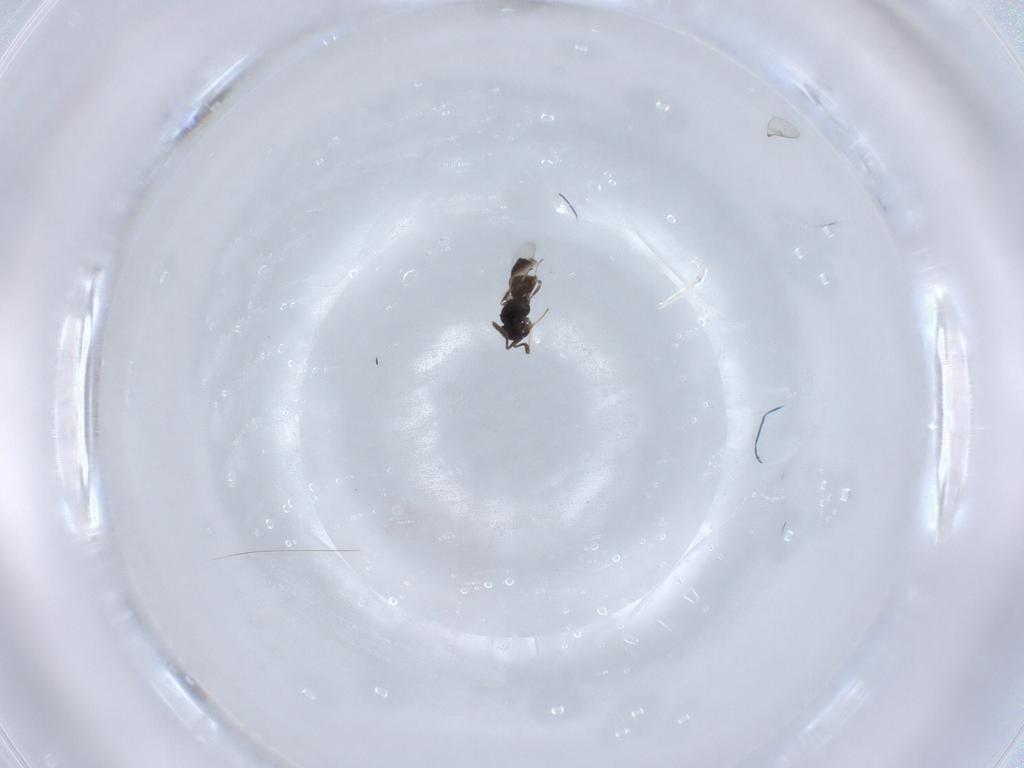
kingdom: Animalia
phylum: Arthropoda
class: Insecta
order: Hymenoptera
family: Scelionidae
